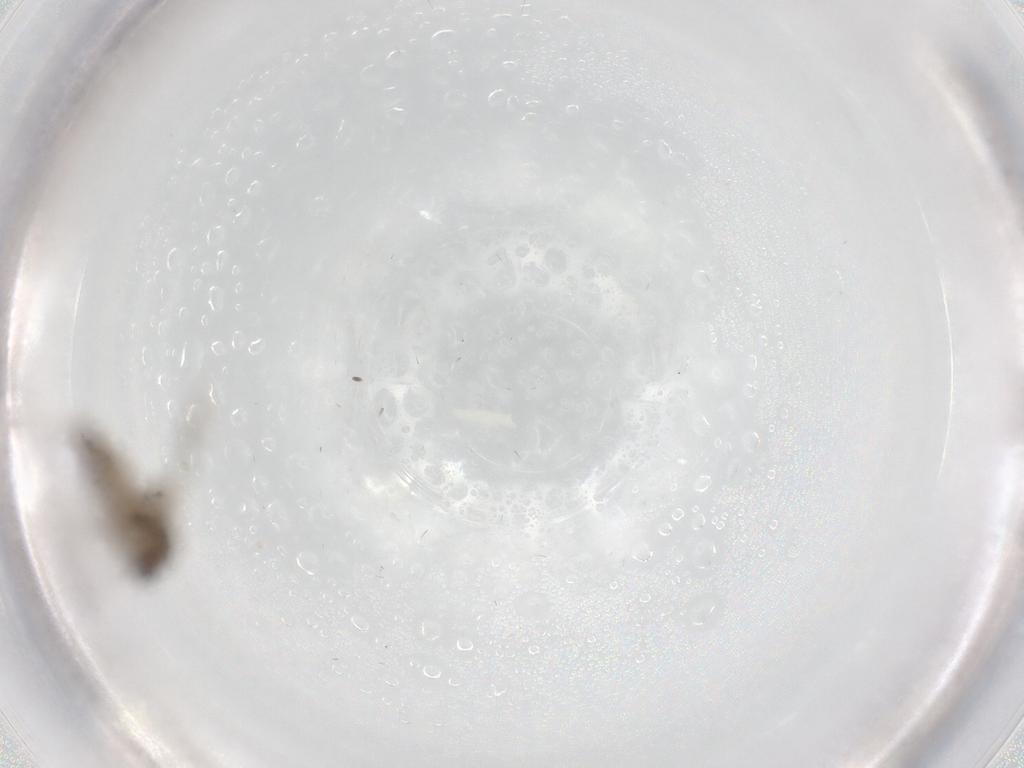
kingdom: Animalia
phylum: Arthropoda
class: Insecta
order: Diptera
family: Ceratopogonidae
